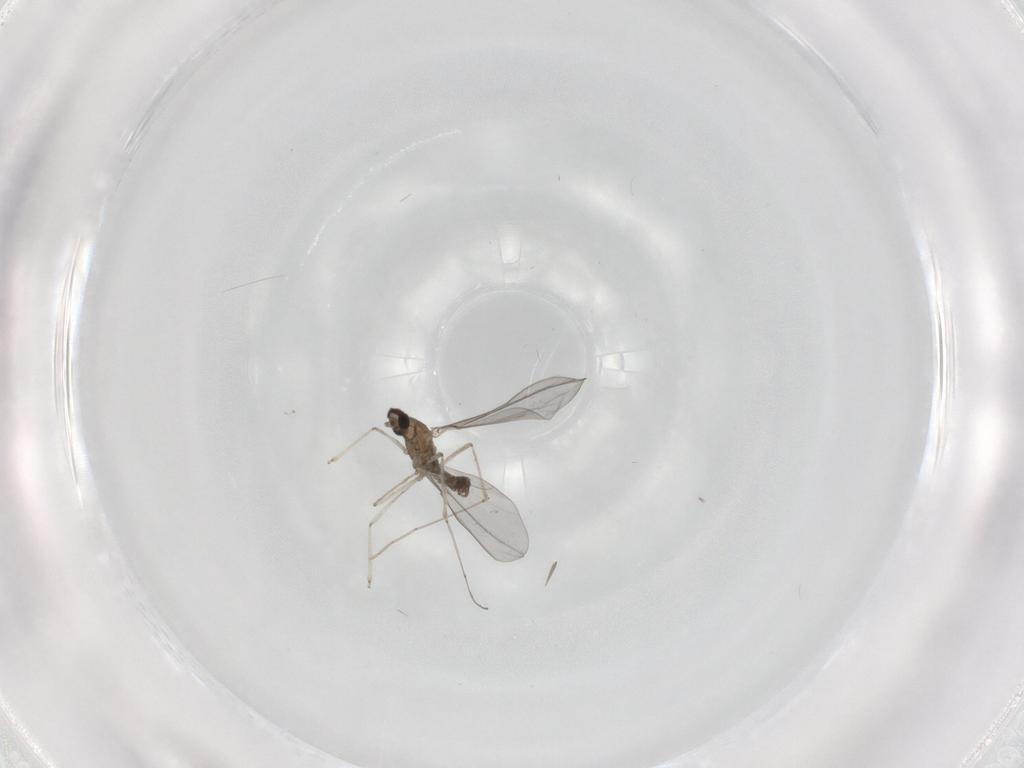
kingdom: Animalia
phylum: Arthropoda
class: Insecta
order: Diptera
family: Cecidomyiidae
